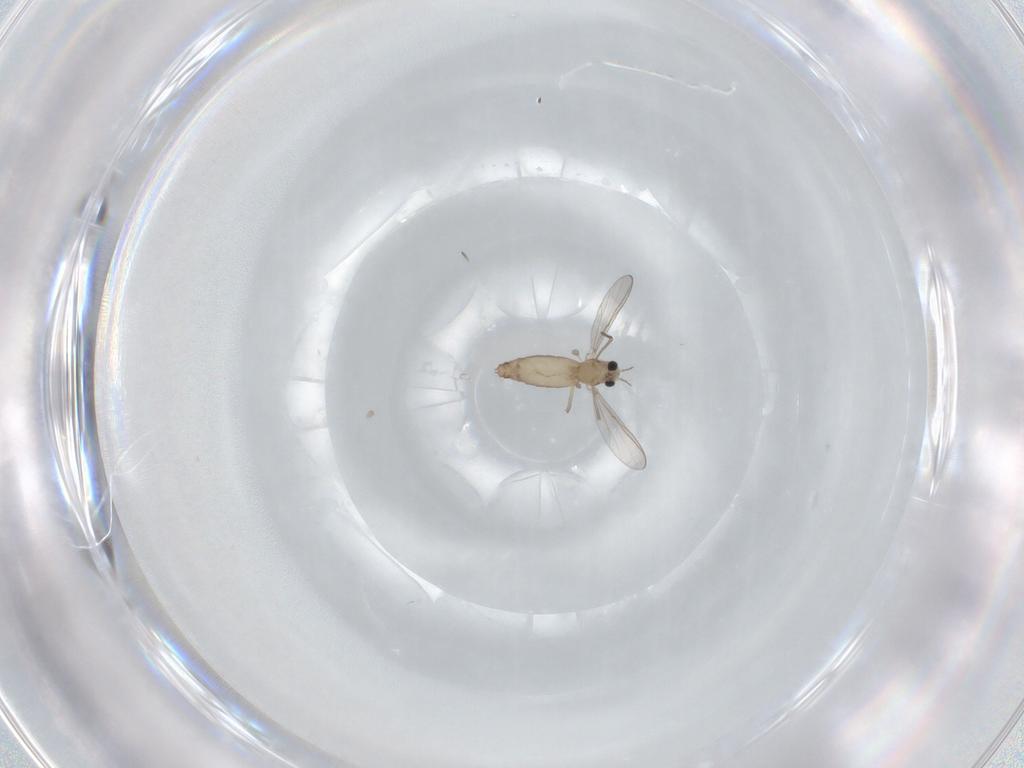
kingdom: Animalia
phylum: Arthropoda
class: Insecta
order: Diptera
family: Chironomidae
